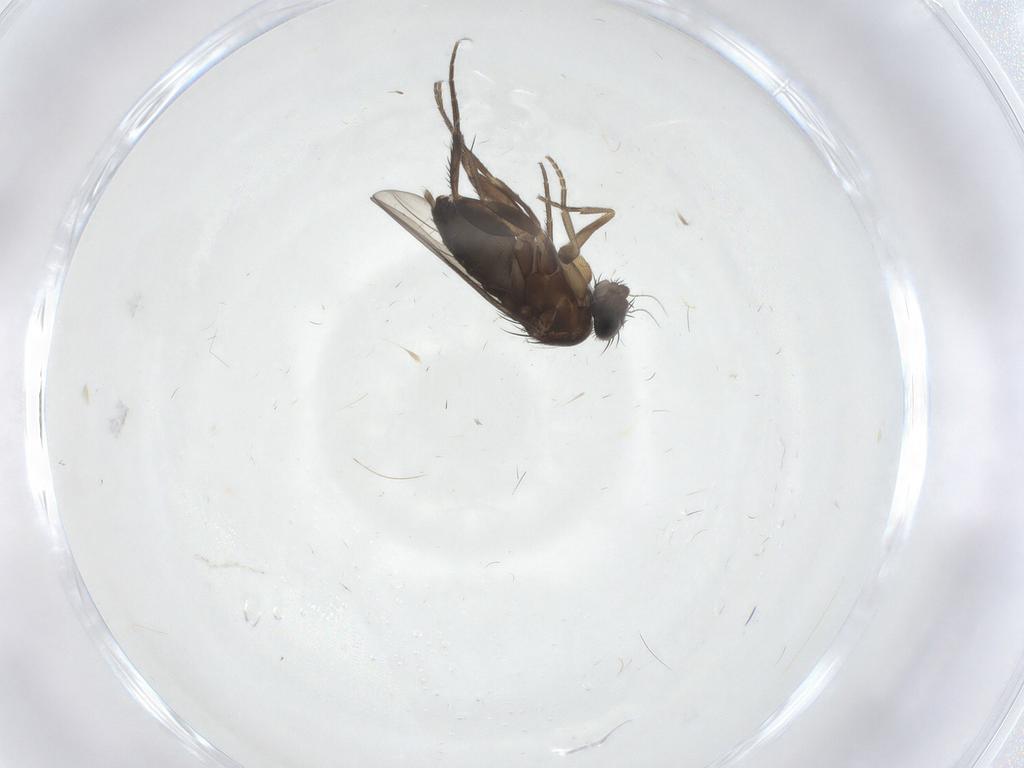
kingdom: Animalia
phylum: Arthropoda
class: Insecta
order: Diptera
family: Phoridae
